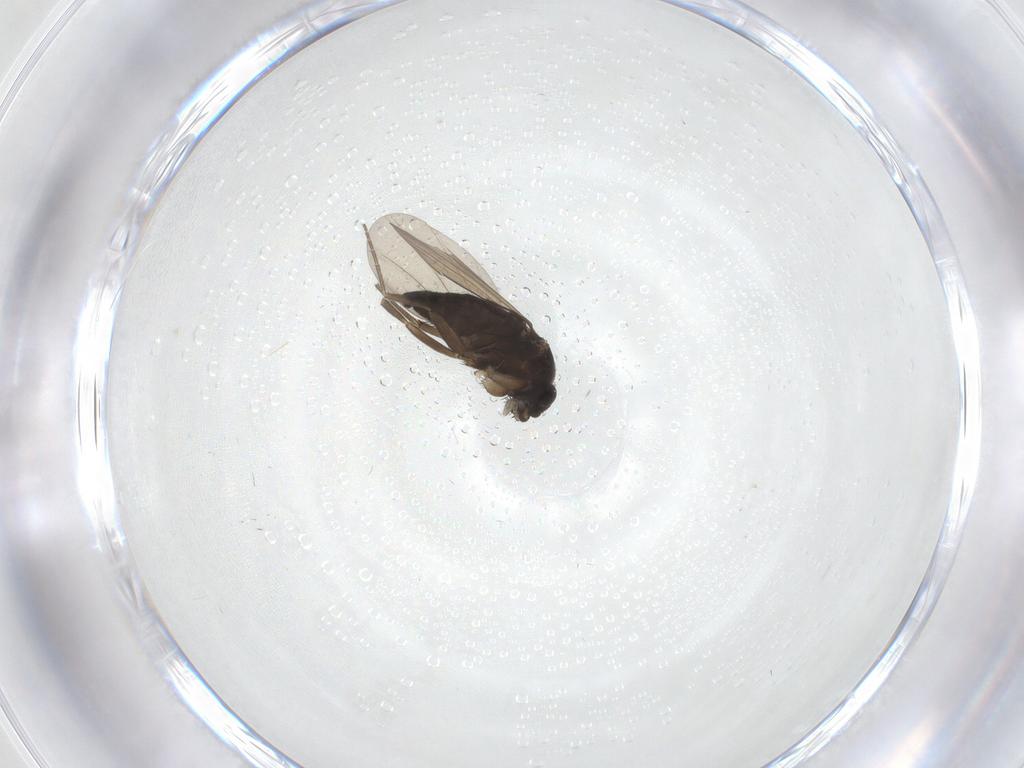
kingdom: Animalia
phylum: Arthropoda
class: Insecta
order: Diptera
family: Phoridae
